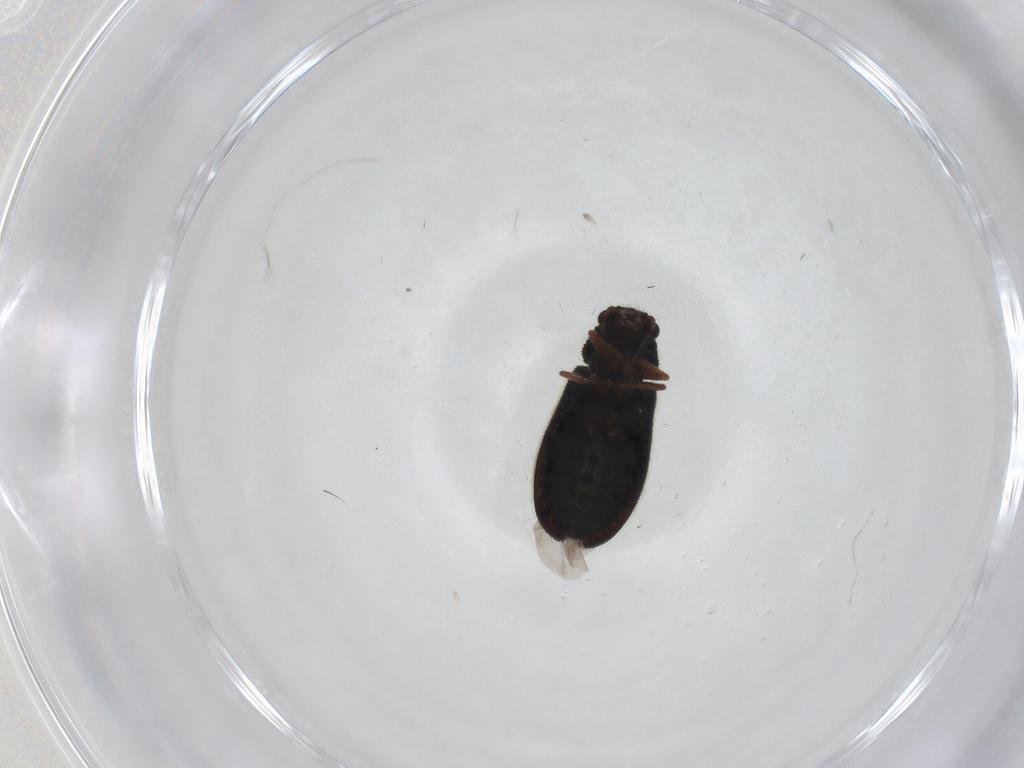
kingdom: Animalia
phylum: Arthropoda
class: Insecta
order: Coleoptera
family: Melyridae
